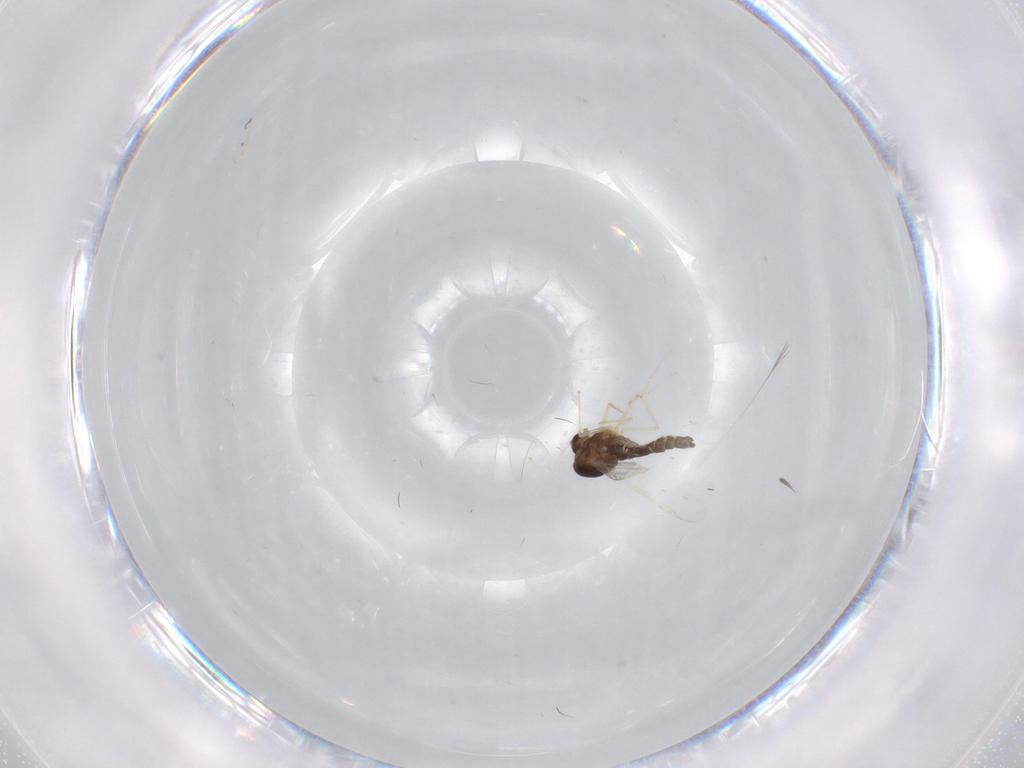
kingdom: Animalia
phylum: Arthropoda
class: Insecta
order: Diptera
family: Chironomidae
